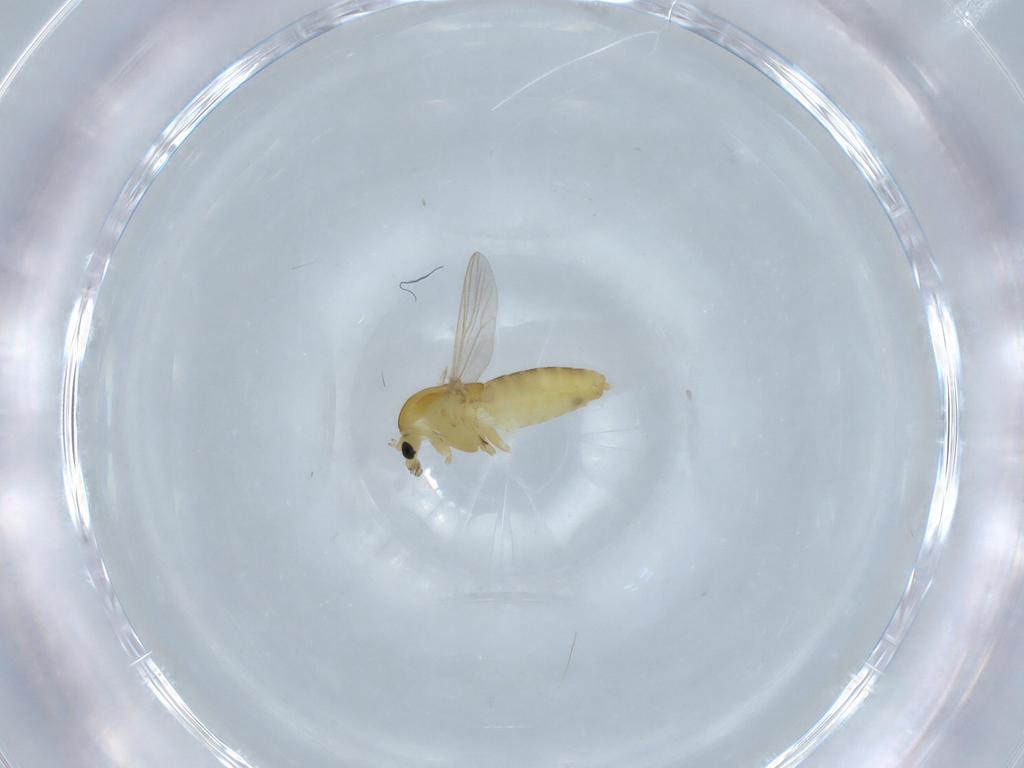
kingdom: Animalia
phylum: Arthropoda
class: Insecta
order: Diptera
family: Chironomidae
